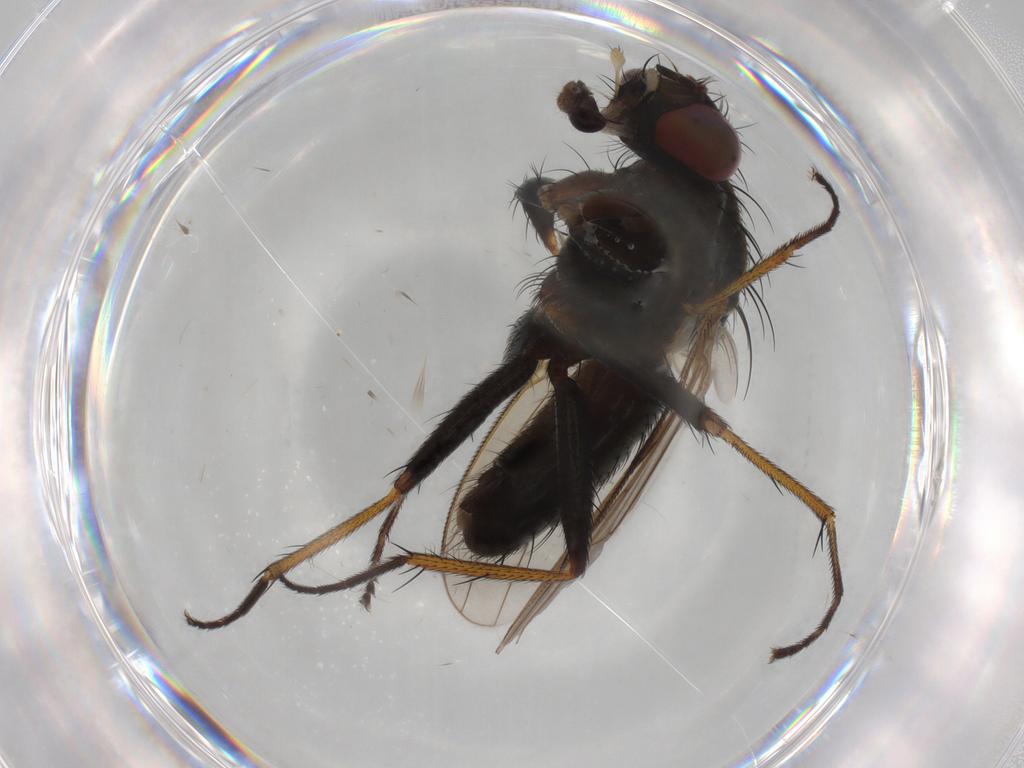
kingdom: Animalia
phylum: Arthropoda
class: Insecta
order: Diptera
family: Muscidae
